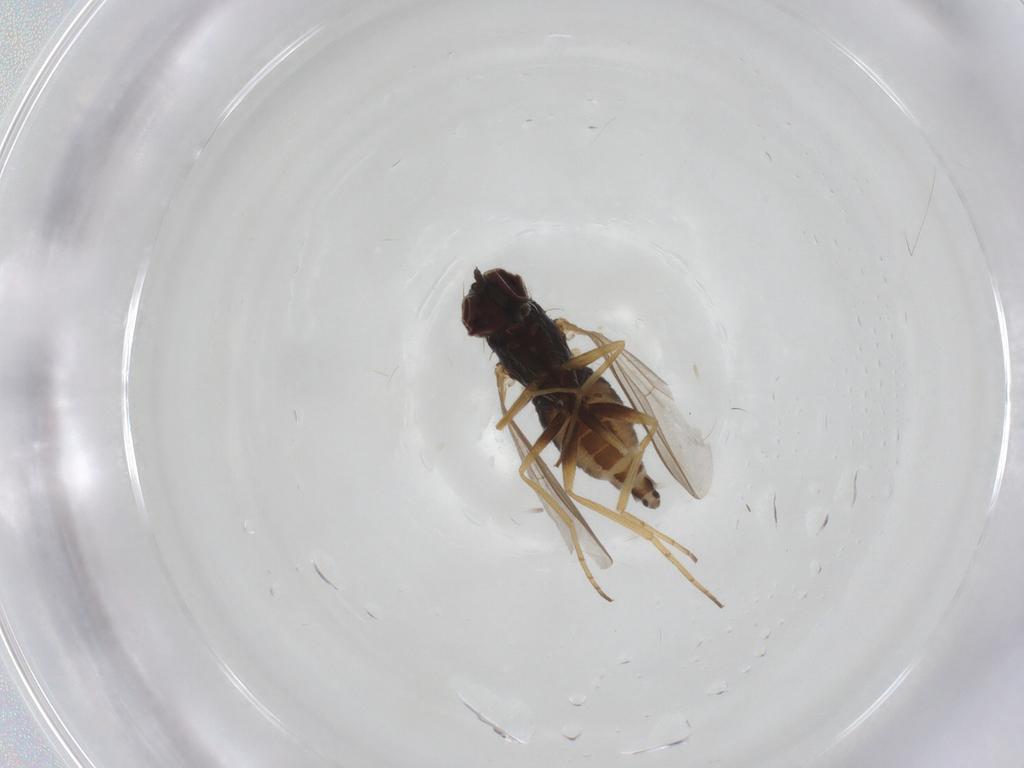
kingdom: Animalia
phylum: Arthropoda
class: Insecta
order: Diptera
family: Dolichopodidae
